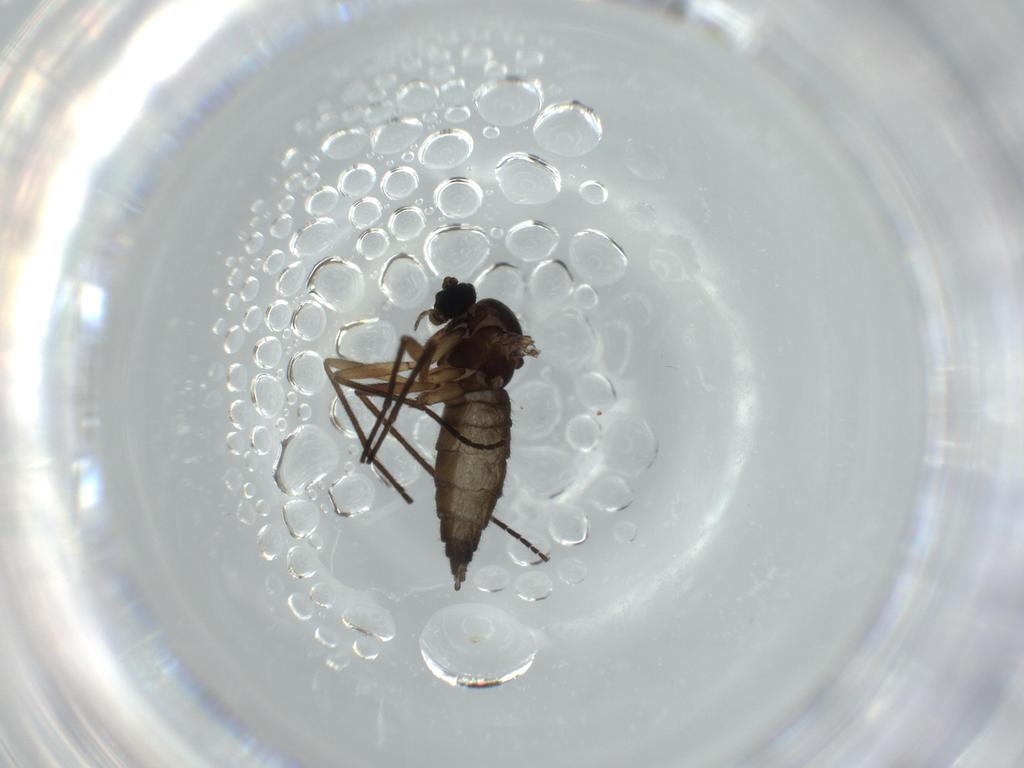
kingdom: Animalia
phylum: Arthropoda
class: Insecta
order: Diptera
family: Sciaridae
